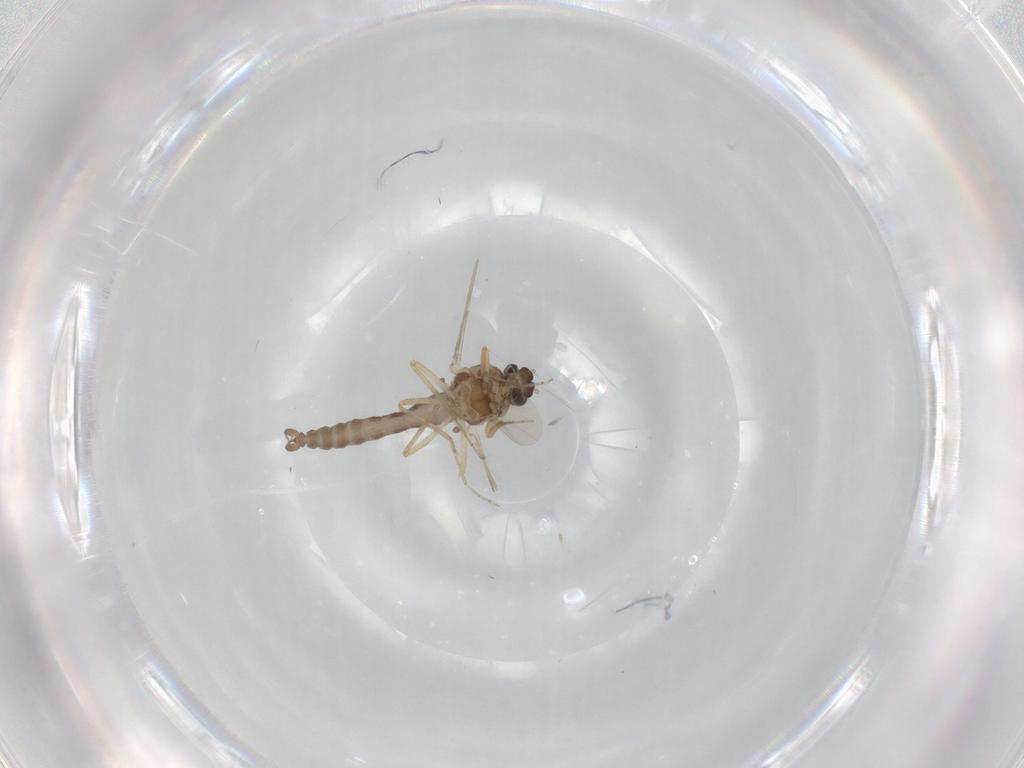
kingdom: Animalia
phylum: Arthropoda
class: Insecta
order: Diptera
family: Ceratopogonidae
